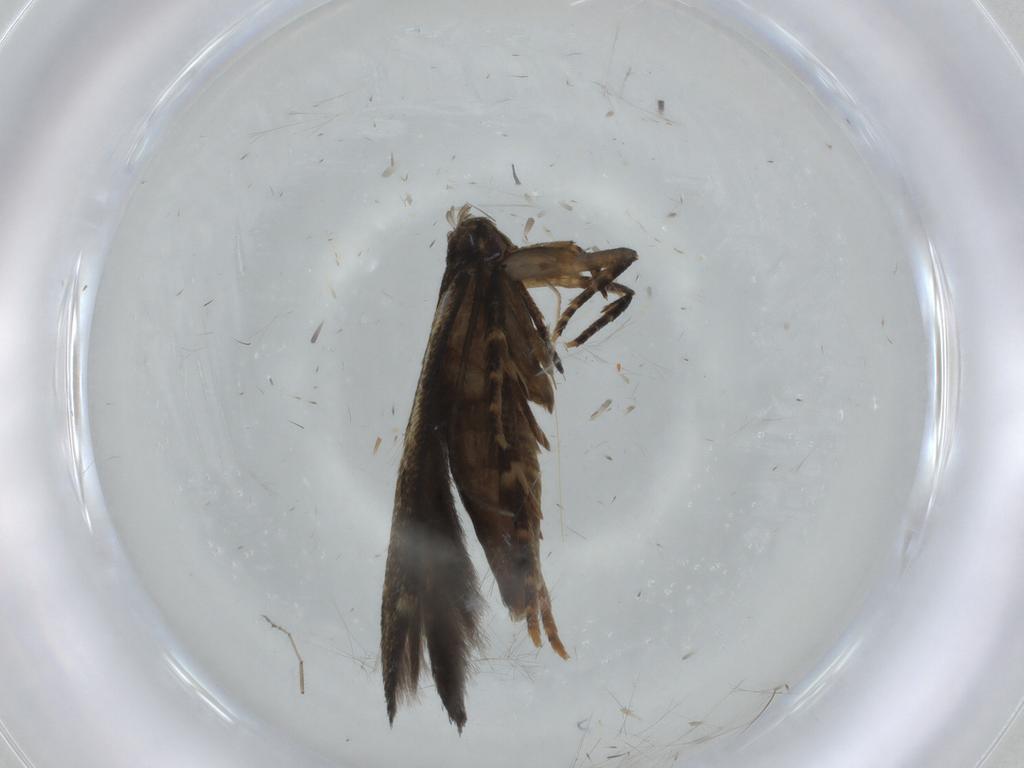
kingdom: Animalia
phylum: Arthropoda
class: Insecta
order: Lepidoptera
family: Cosmopterigidae
